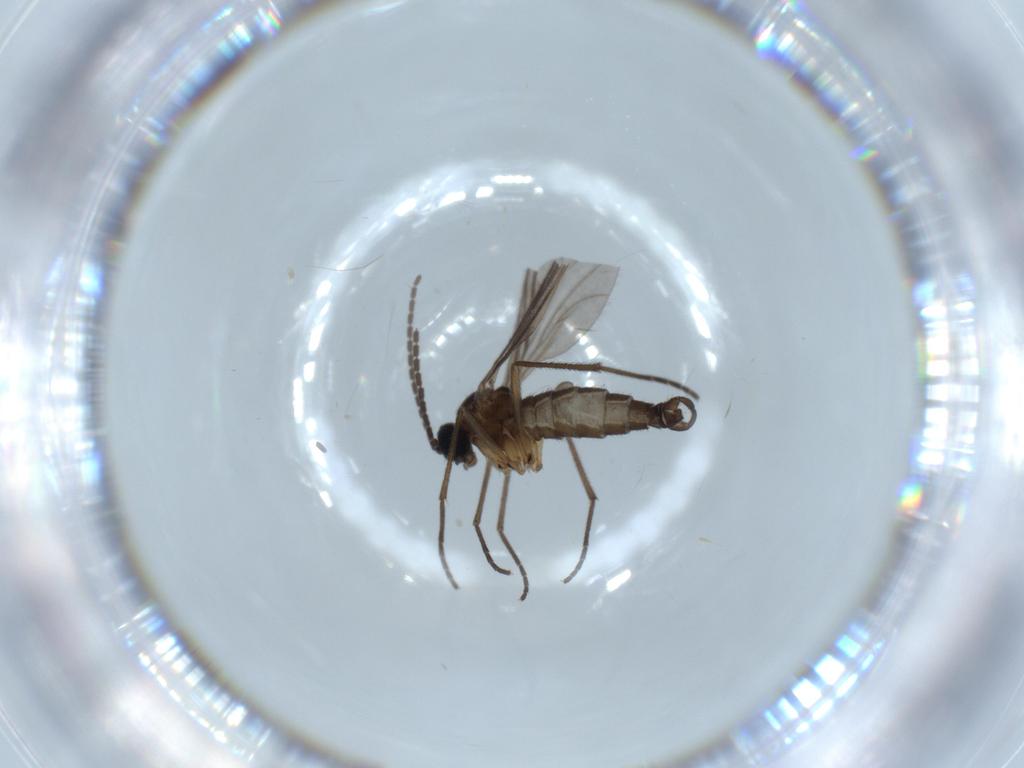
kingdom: Animalia
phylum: Arthropoda
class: Insecta
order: Diptera
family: Sciaridae
